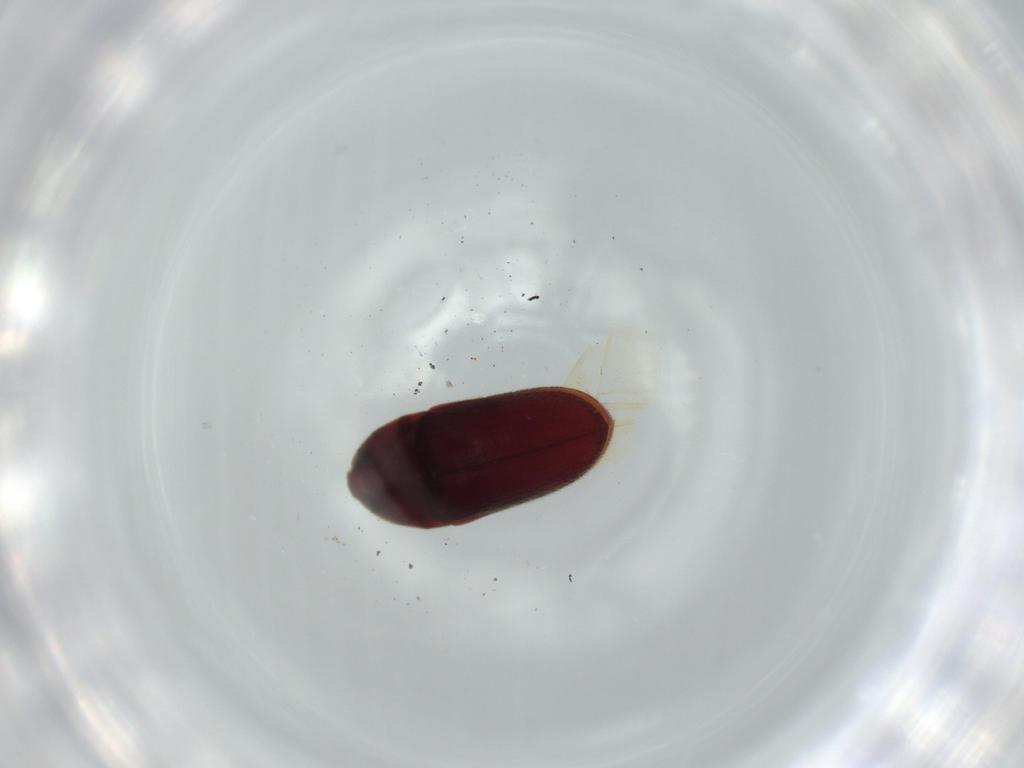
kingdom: Animalia
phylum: Arthropoda
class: Insecta
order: Coleoptera
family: Throscidae
